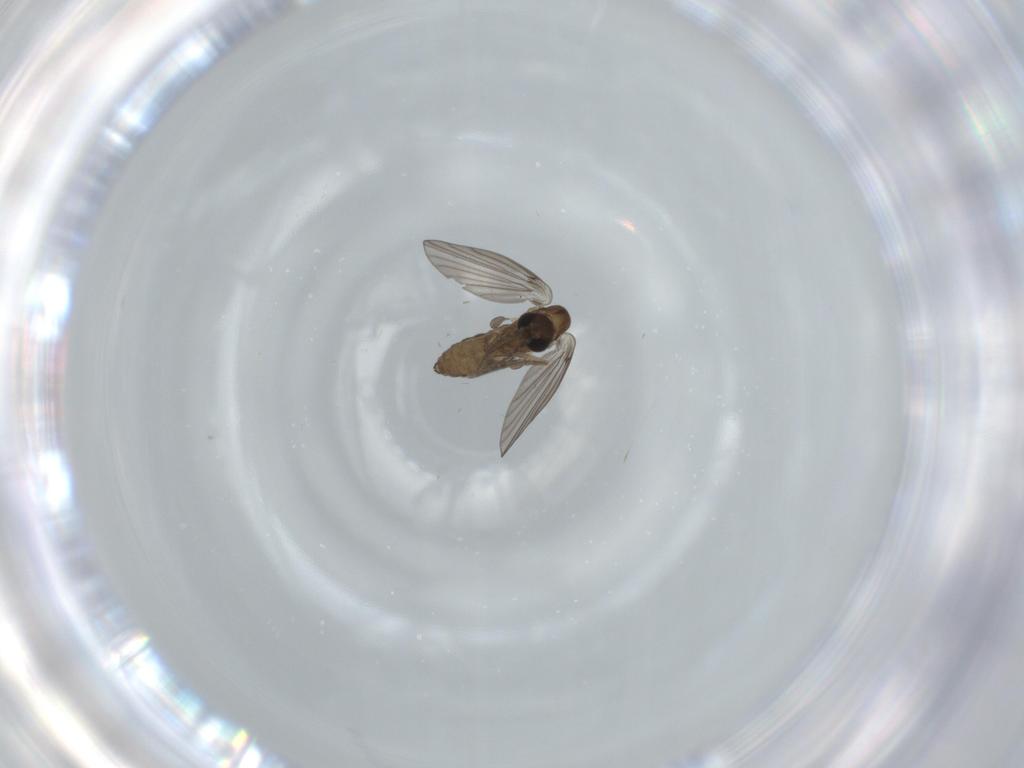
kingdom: Animalia
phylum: Arthropoda
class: Insecta
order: Diptera
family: Psychodidae
